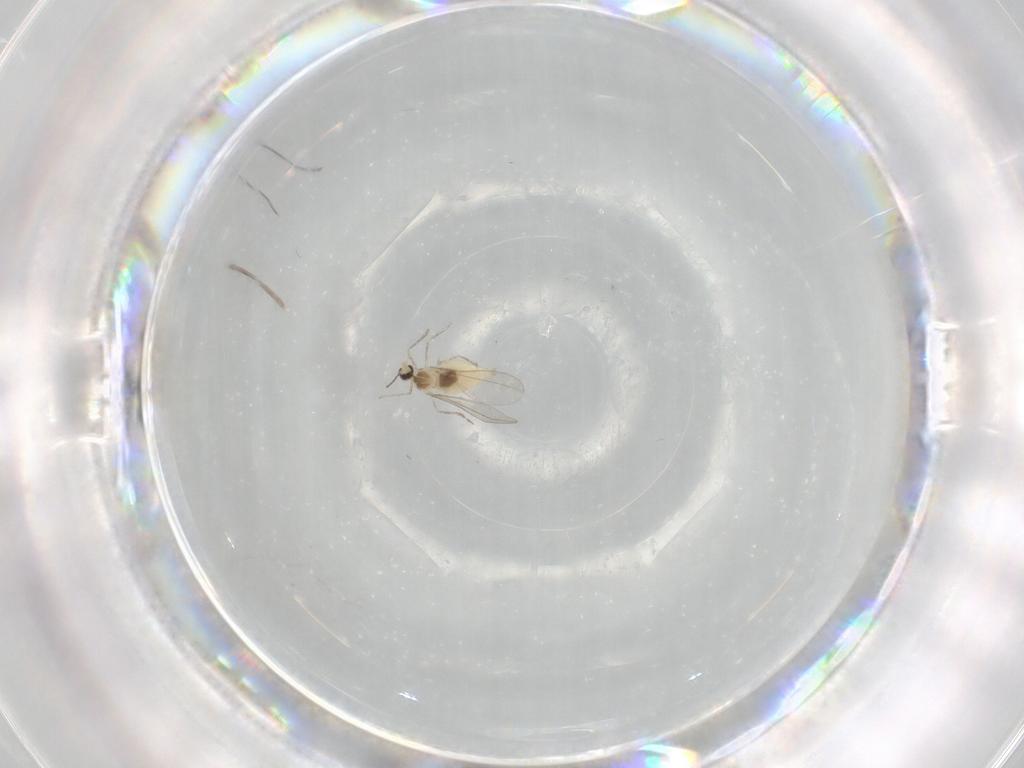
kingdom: Animalia
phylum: Arthropoda
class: Insecta
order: Diptera
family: Cecidomyiidae
